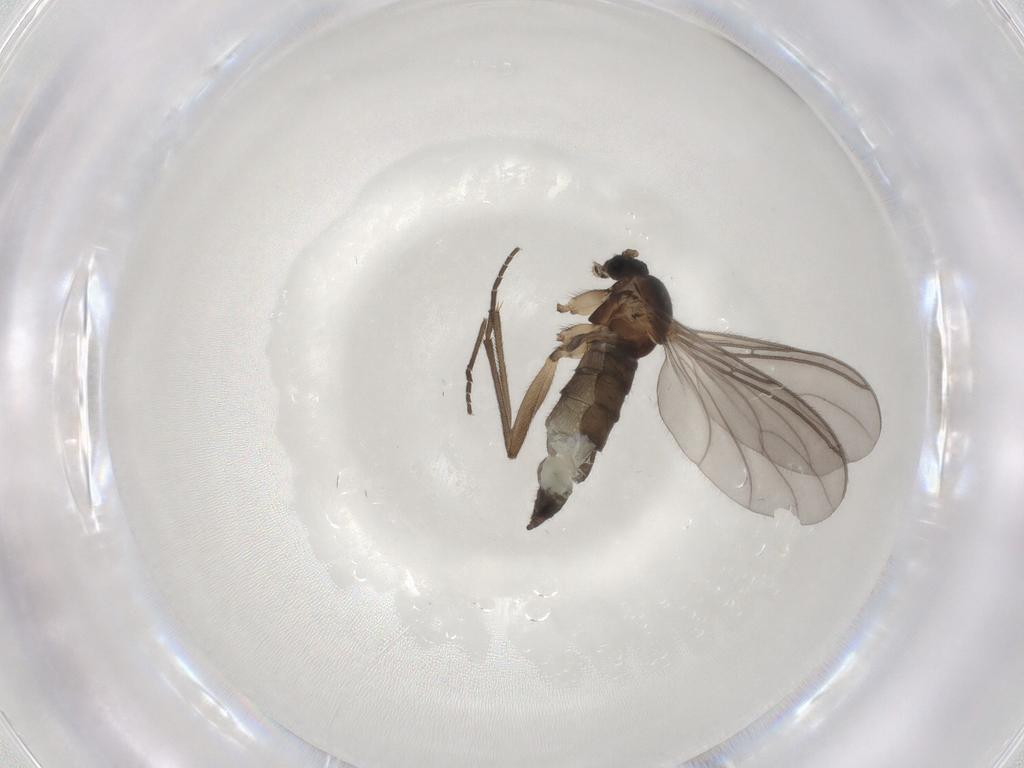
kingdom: Animalia
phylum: Arthropoda
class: Insecta
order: Diptera
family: Sciaridae
